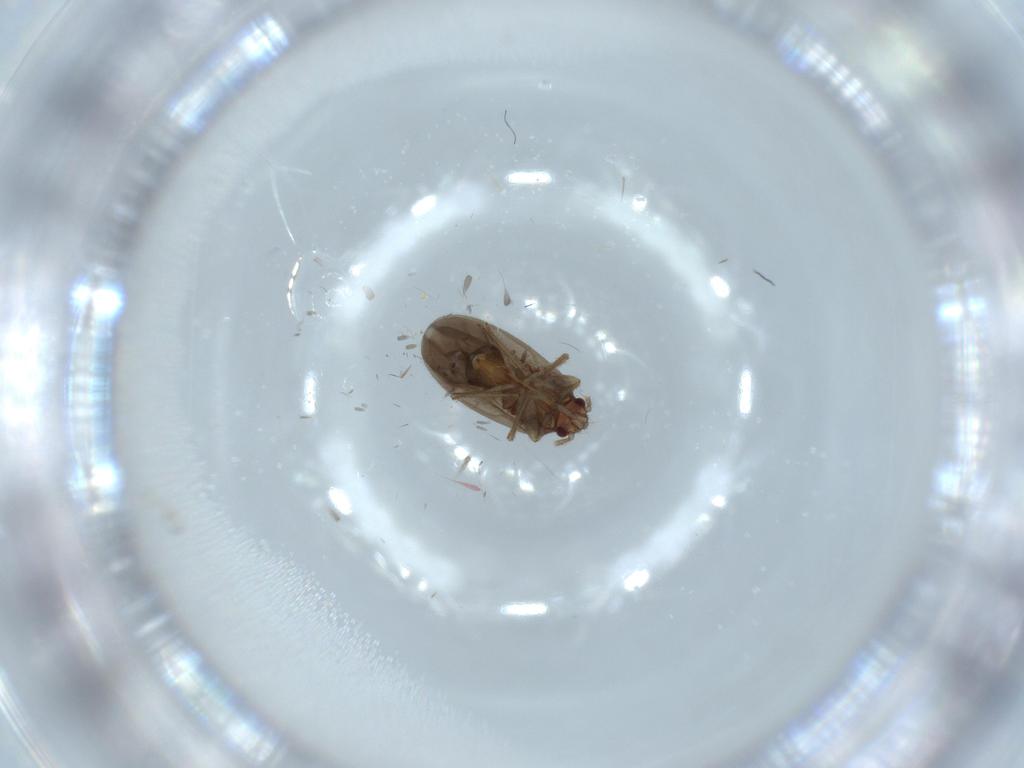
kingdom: Animalia
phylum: Arthropoda
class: Insecta
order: Hemiptera
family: Ceratocombidae
